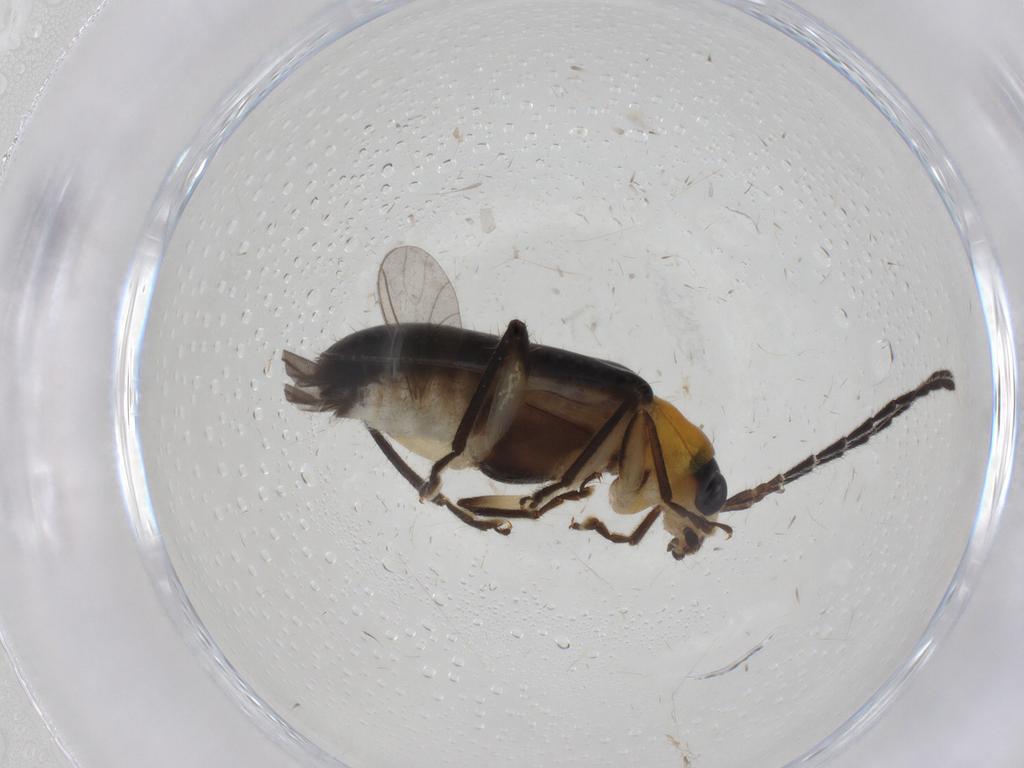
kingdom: Animalia
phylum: Arthropoda
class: Insecta
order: Coleoptera
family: Chrysomelidae
